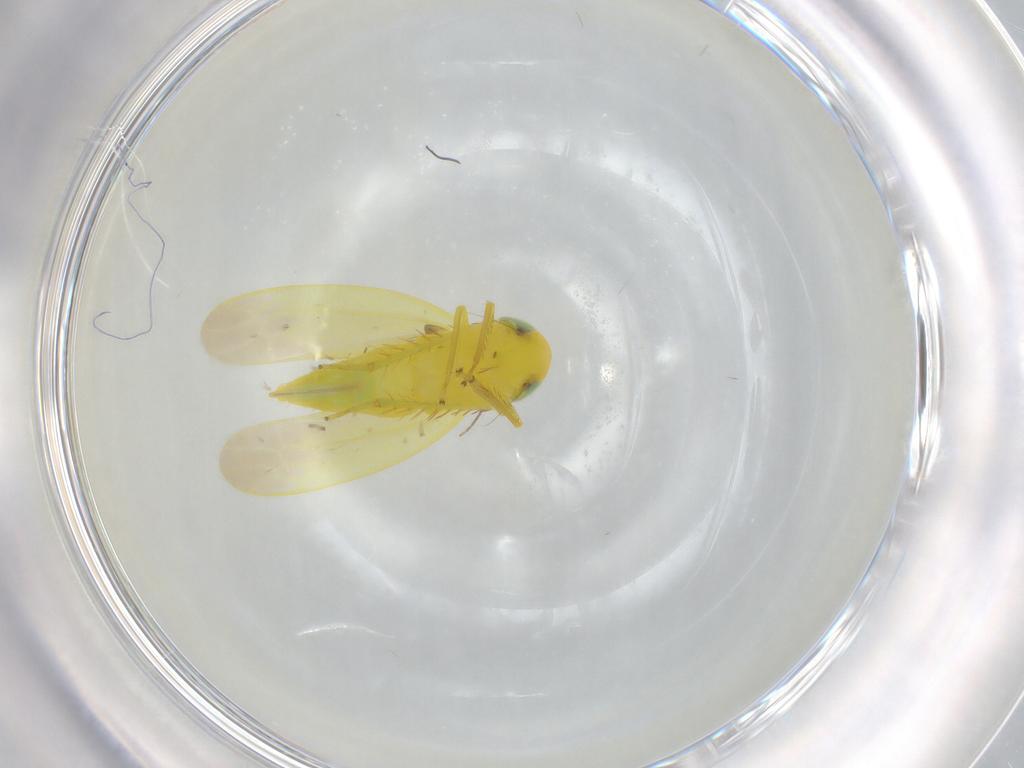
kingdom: Animalia
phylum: Arthropoda
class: Insecta
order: Hemiptera
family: Cicadellidae
